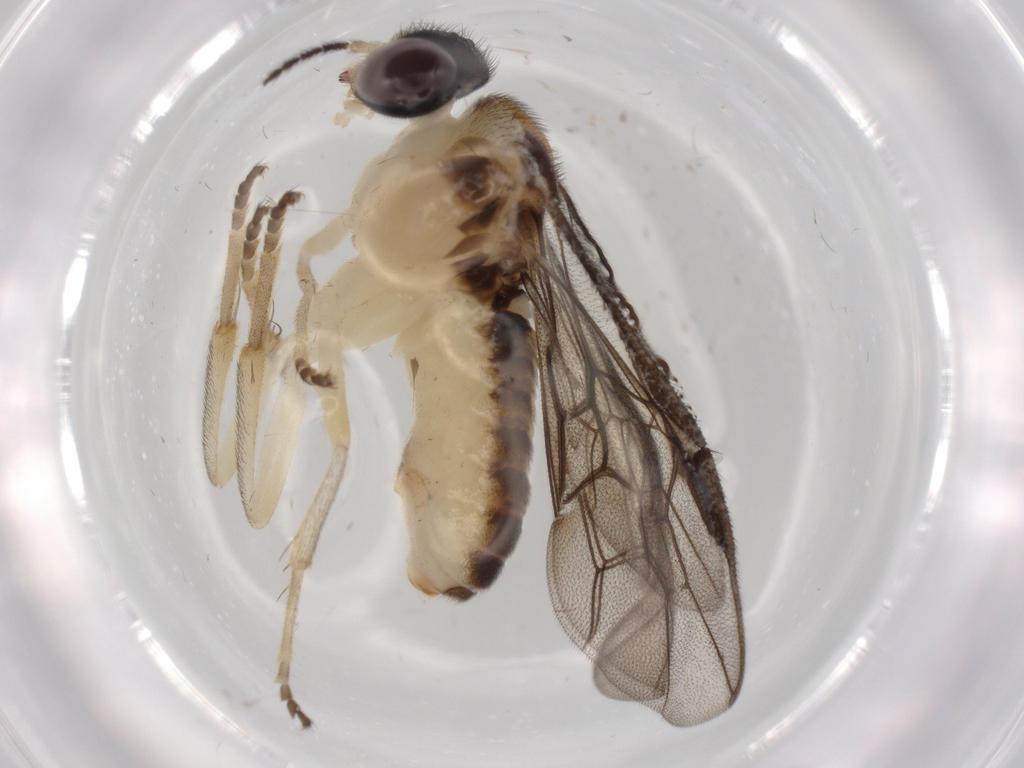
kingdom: Animalia
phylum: Arthropoda
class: Insecta
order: Hymenoptera
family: Pergidae
